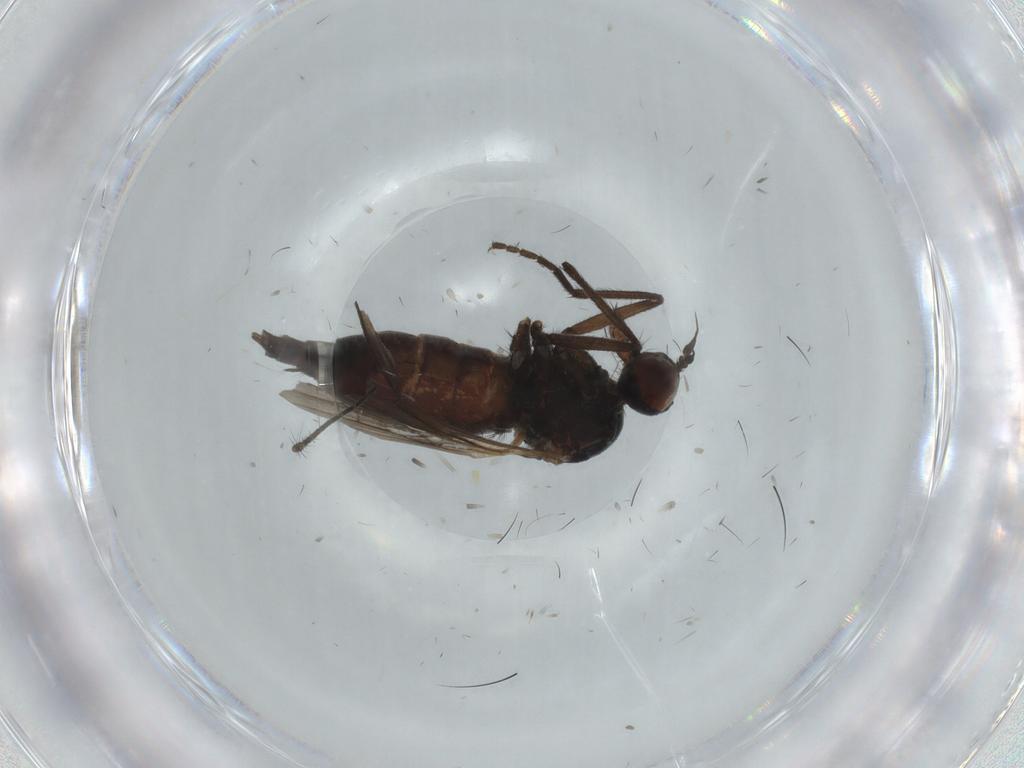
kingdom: Animalia
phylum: Arthropoda
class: Insecta
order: Diptera
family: Culicidae
